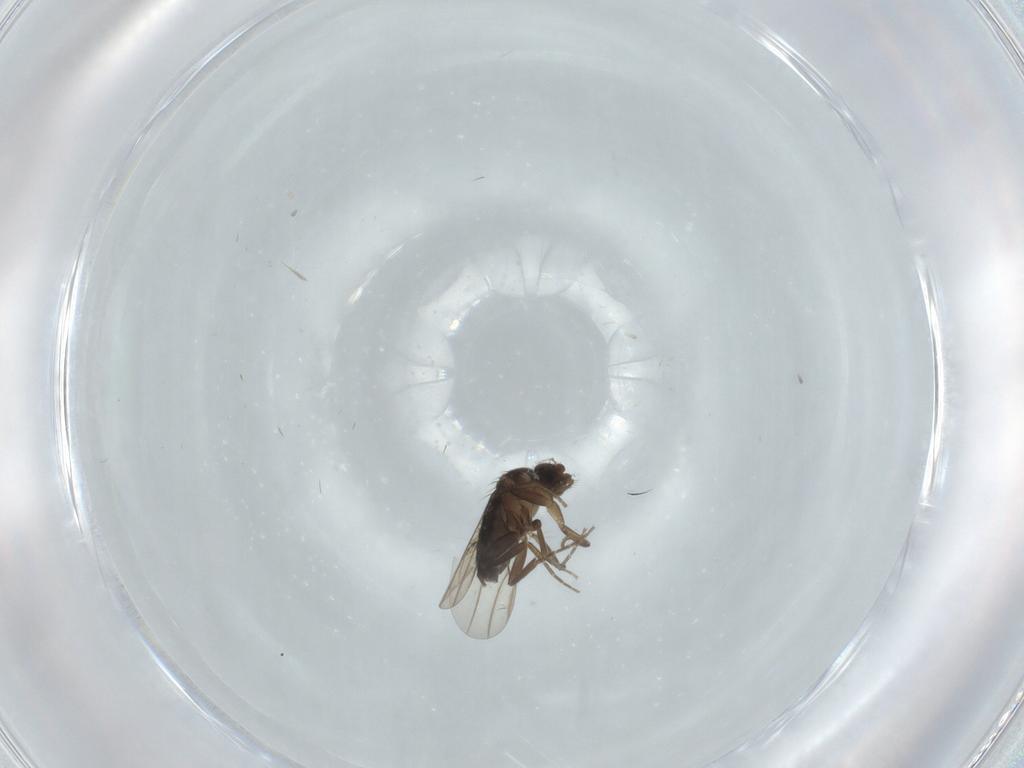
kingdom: Animalia
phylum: Arthropoda
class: Insecta
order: Diptera
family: Phoridae
